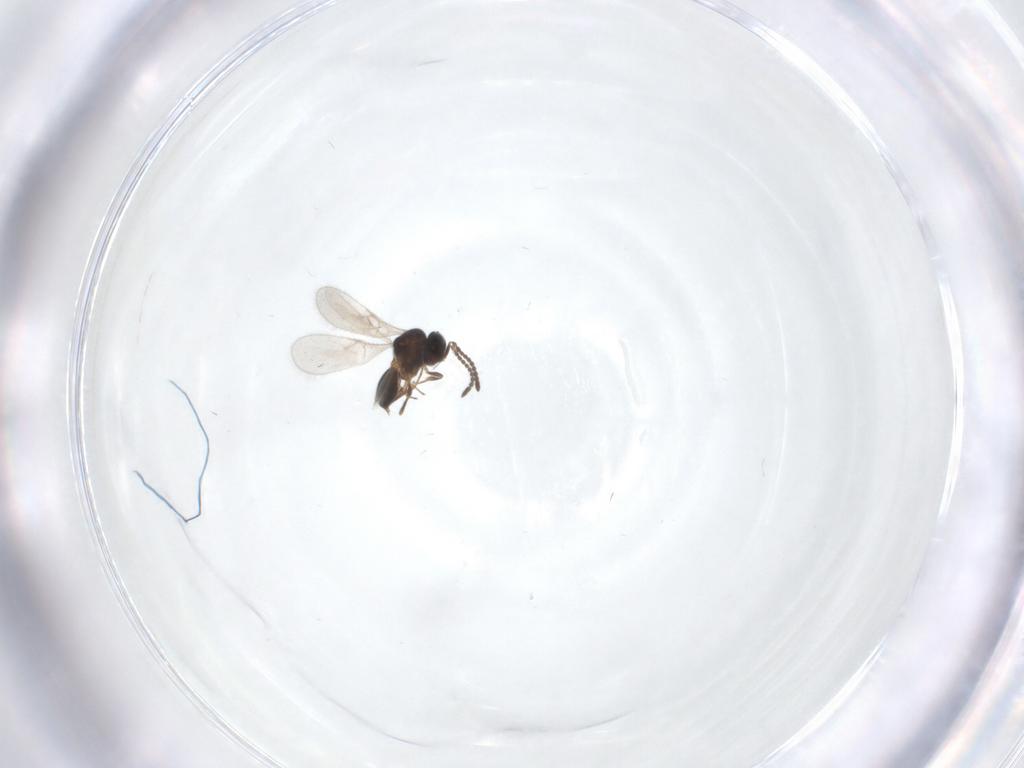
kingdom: Animalia
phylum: Arthropoda
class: Insecta
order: Hymenoptera
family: Scelionidae
